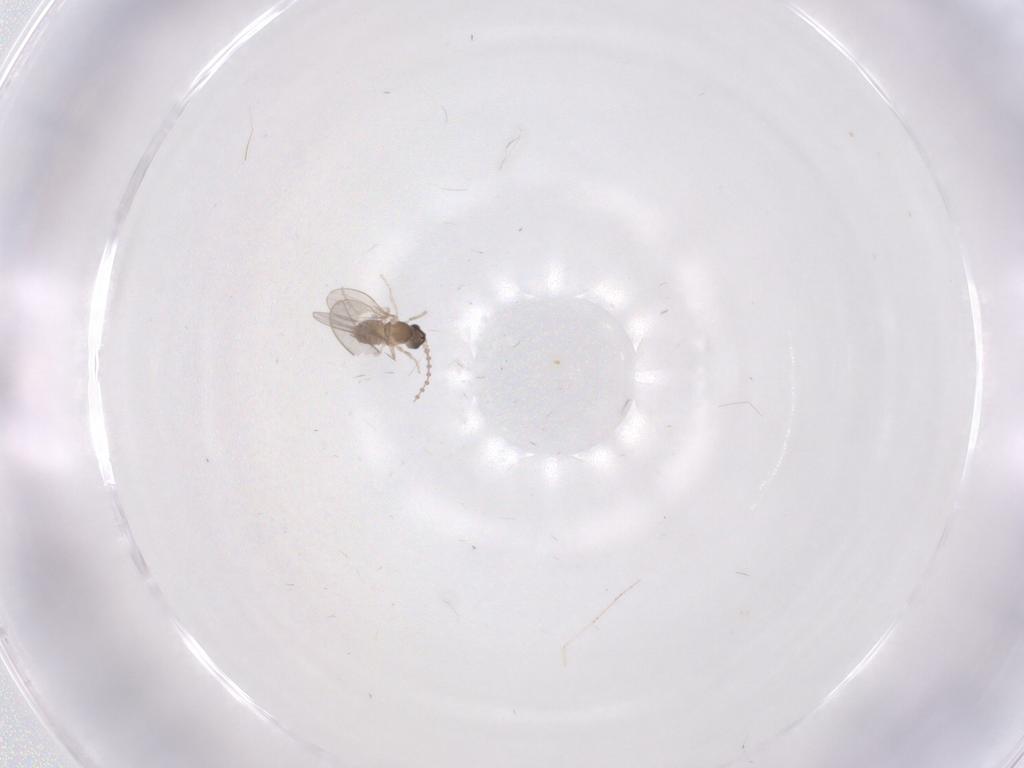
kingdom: Animalia
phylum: Arthropoda
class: Insecta
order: Diptera
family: Cecidomyiidae
